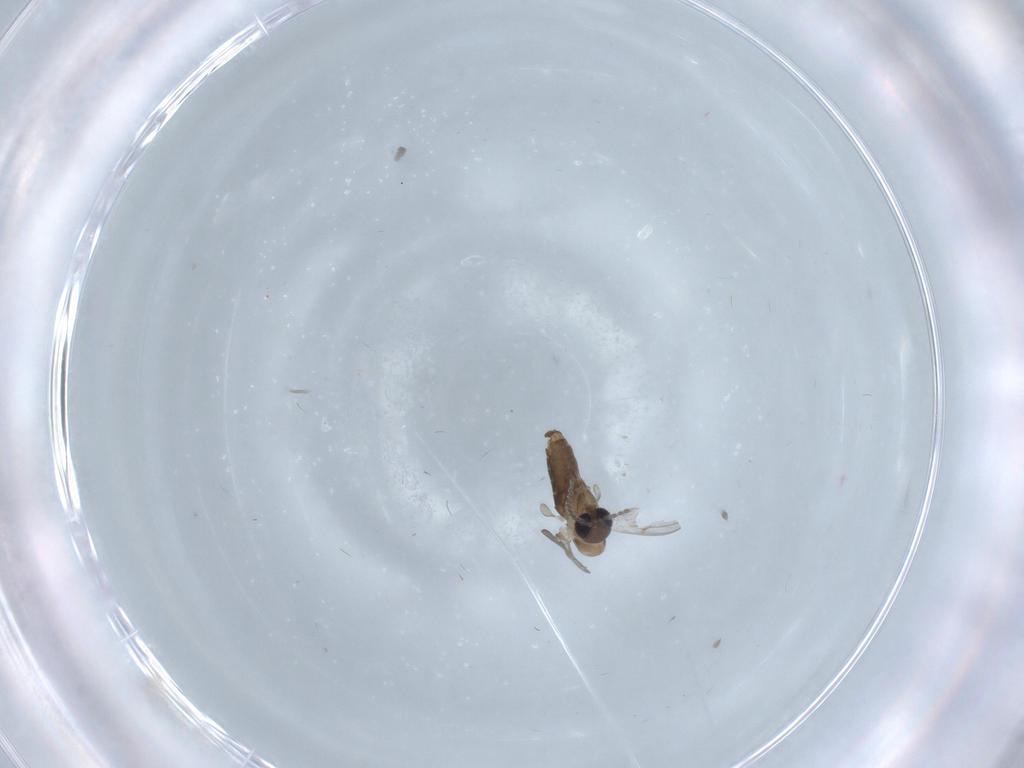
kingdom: Animalia
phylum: Arthropoda
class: Insecta
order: Diptera
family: Cecidomyiidae
